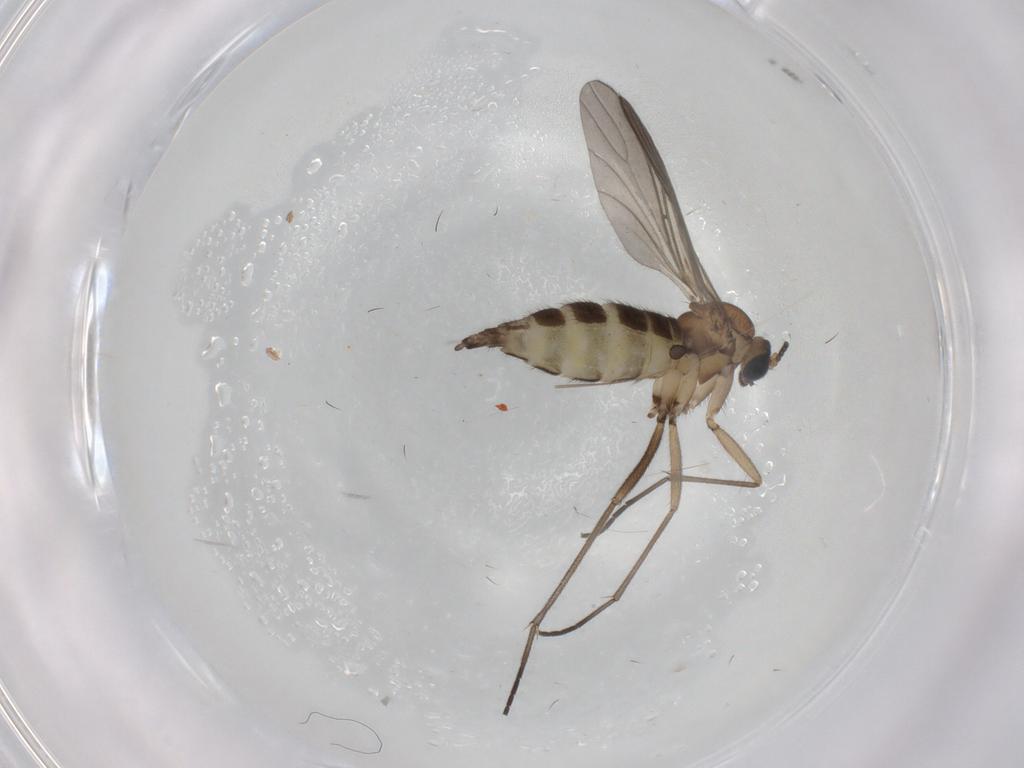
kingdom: Animalia
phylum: Arthropoda
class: Insecta
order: Diptera
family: Sciaridae
